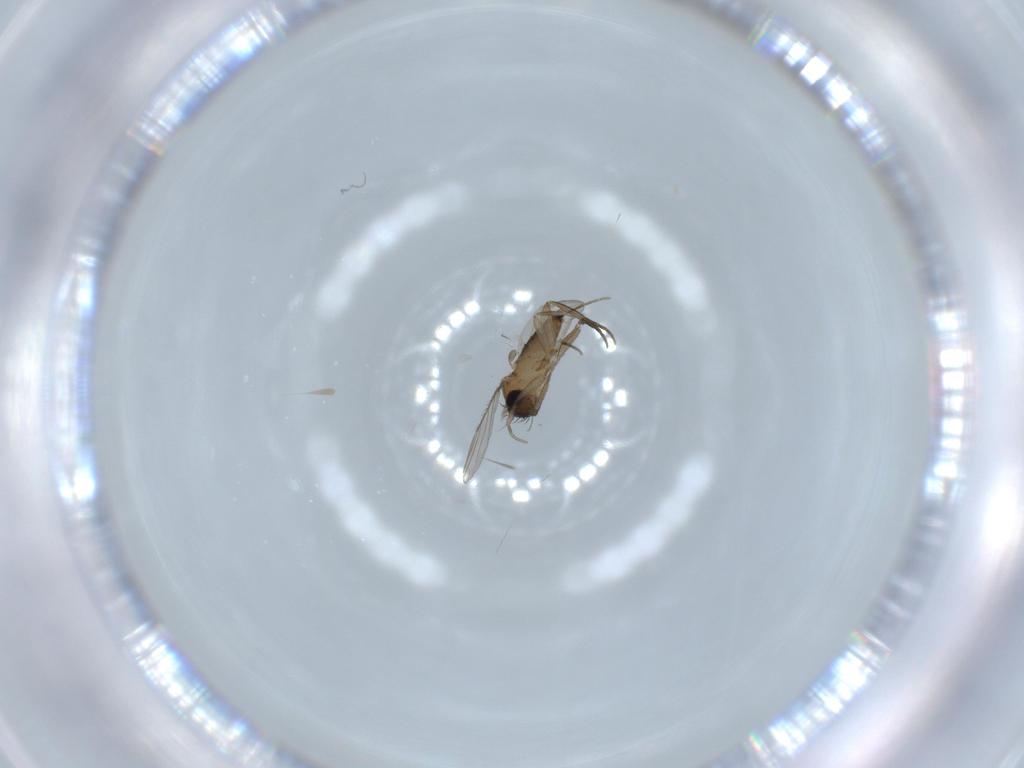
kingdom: Animalia
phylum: Arthropoda
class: Insecta
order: Diptera
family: Phoridae
